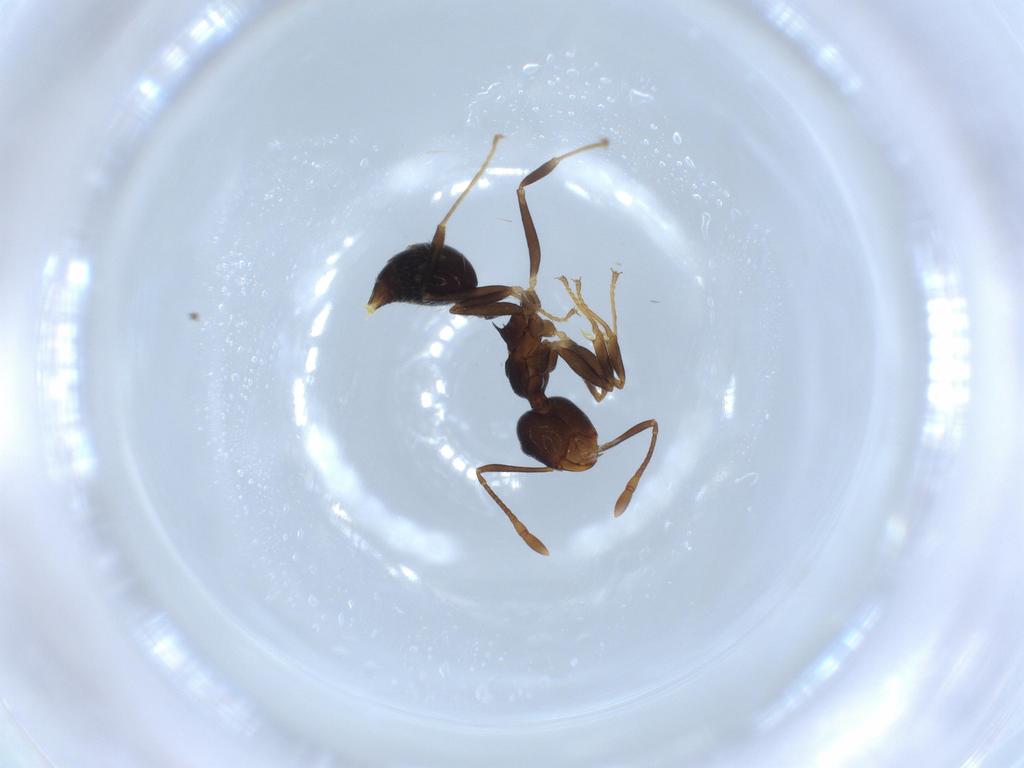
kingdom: Animalia
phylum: Arthropoda
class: Insecta
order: Hymenoptera
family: Formicidae
